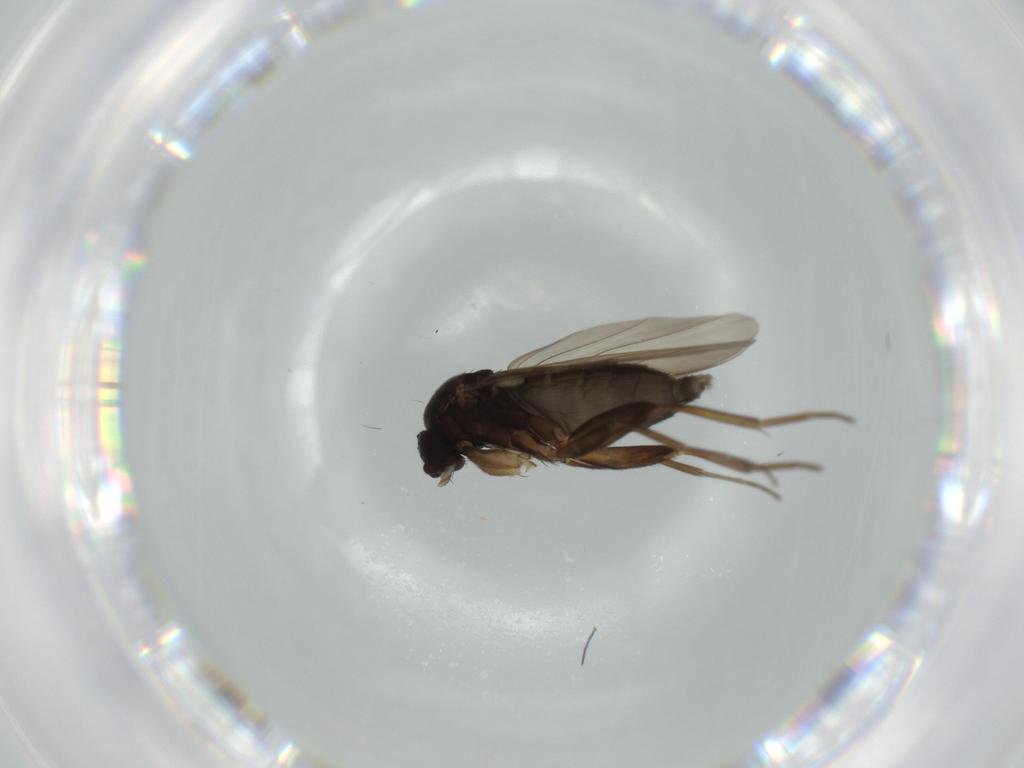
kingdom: Animalia
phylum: Arthropoda
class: Insecta
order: Diptera
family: Phoridae
